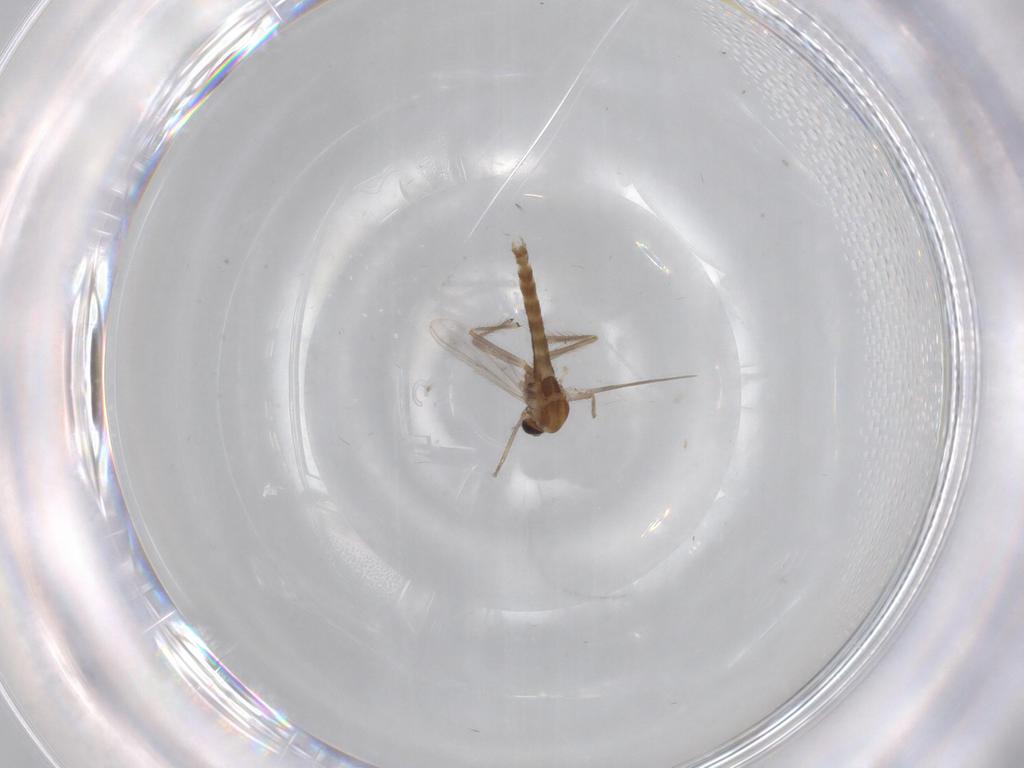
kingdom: Animalia
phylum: Arthropoda
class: Insecta
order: Diptera
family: Chironomidae
